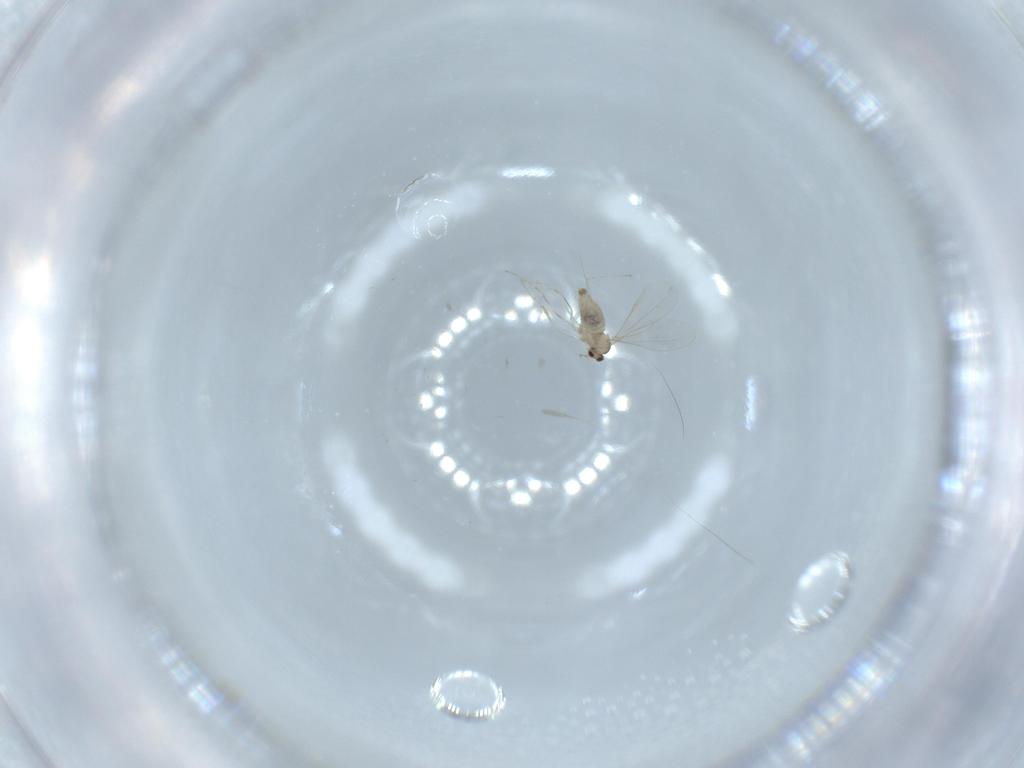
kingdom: Animalia
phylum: Arthropoda
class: Insecta
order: Diptera
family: Cecidomyiidae
